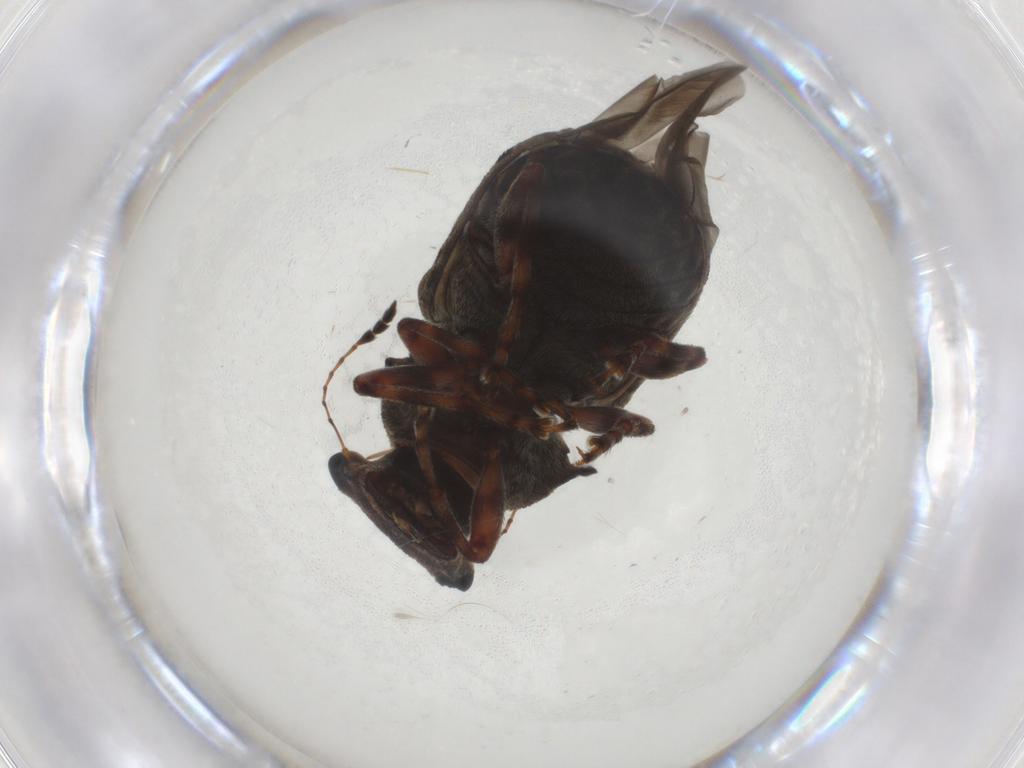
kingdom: Animalia
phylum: Arthropoda
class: Insecta
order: Coleoptera
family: Anthribidae
